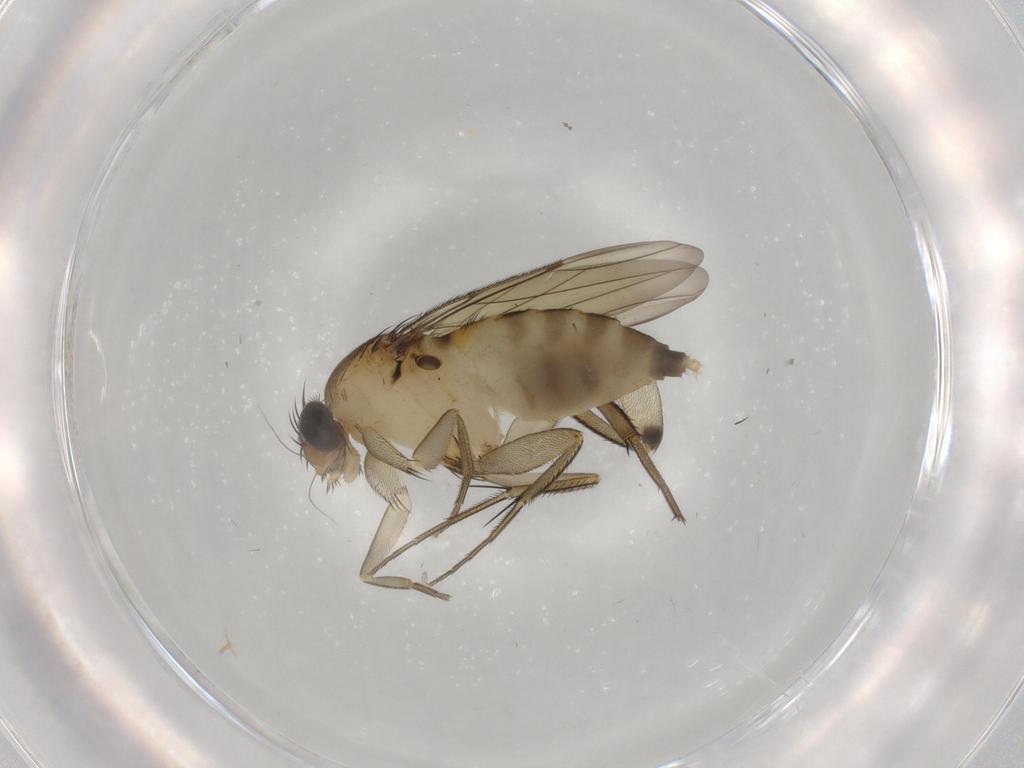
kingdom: Animalia
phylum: Arthropoda
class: Insecta
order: Diptera
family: Sciaridae
